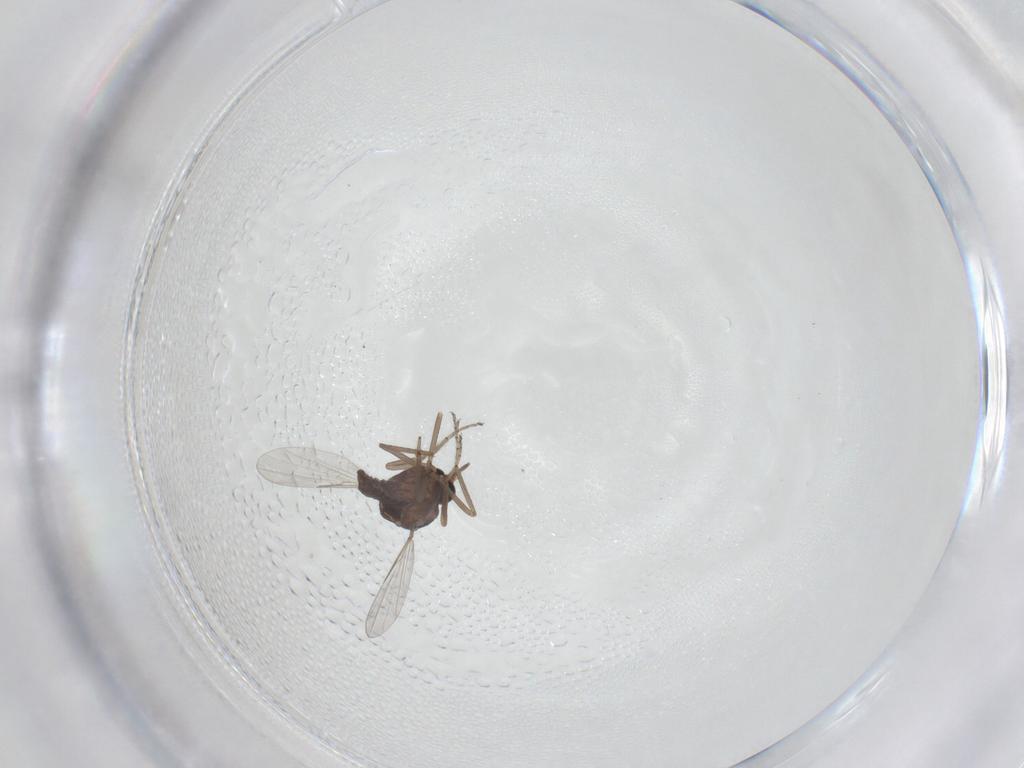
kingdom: Animalia
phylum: Arthropoda
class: Insecta
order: Diptera
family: Ceratopogonidae
